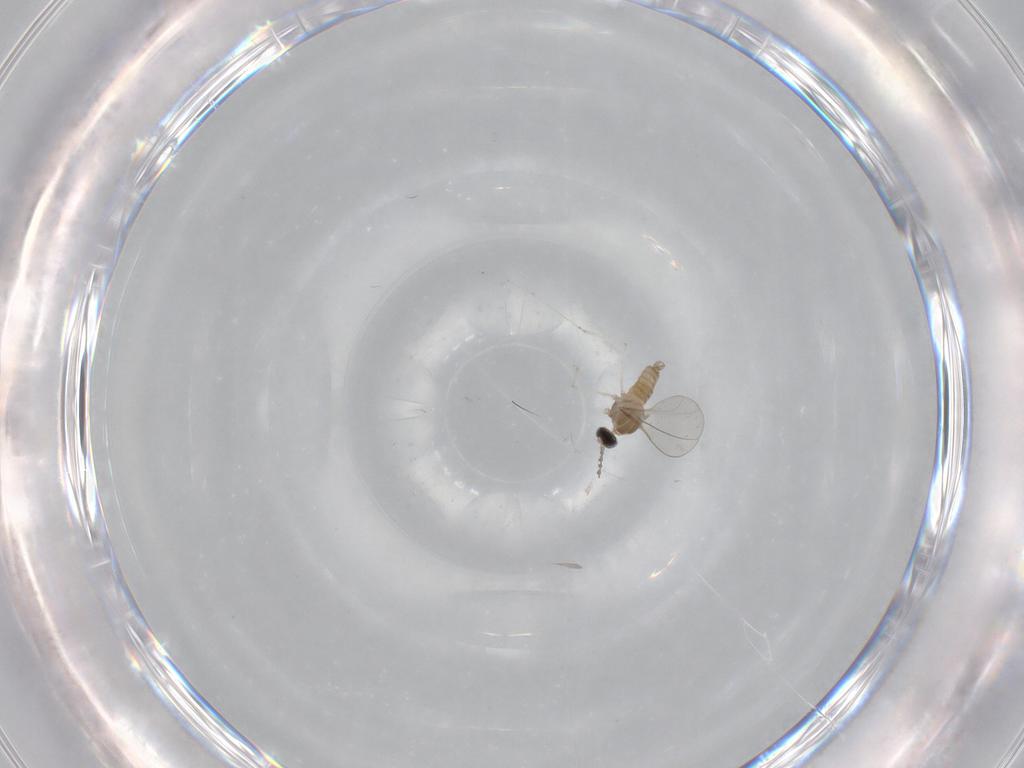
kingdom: Animalia
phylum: Arthropoda
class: Insecta
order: Diptera
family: Cecidomyiidae
